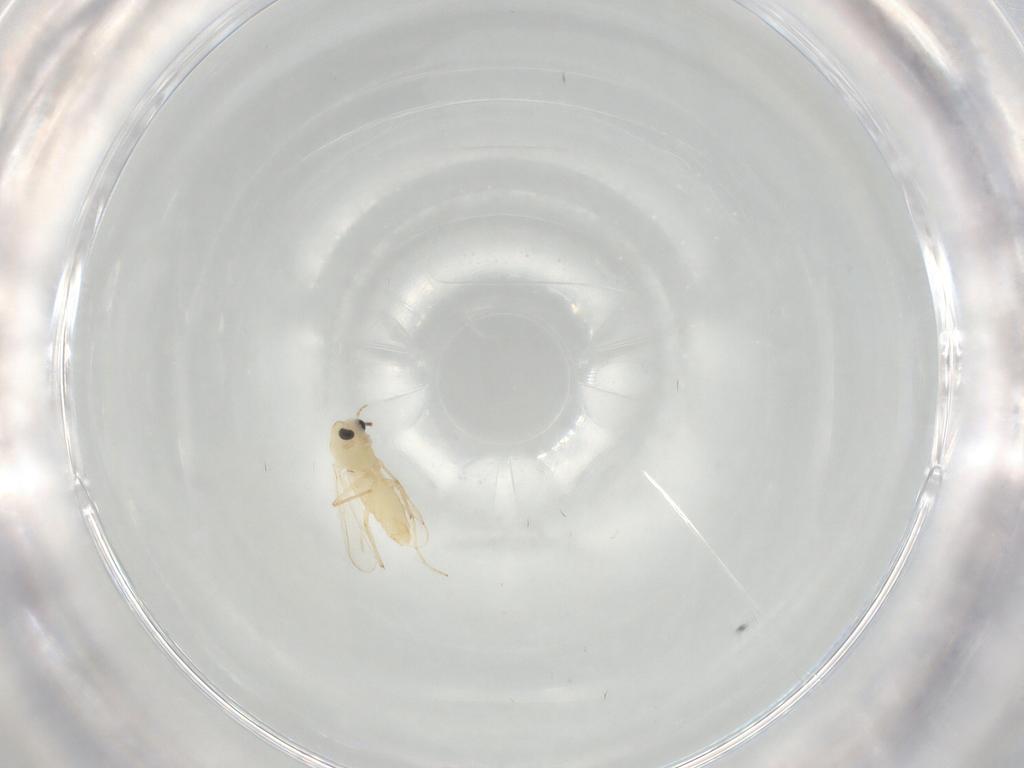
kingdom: Animalia
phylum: Arthropoda
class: Insecta
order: Diptera
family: Chironomidae
